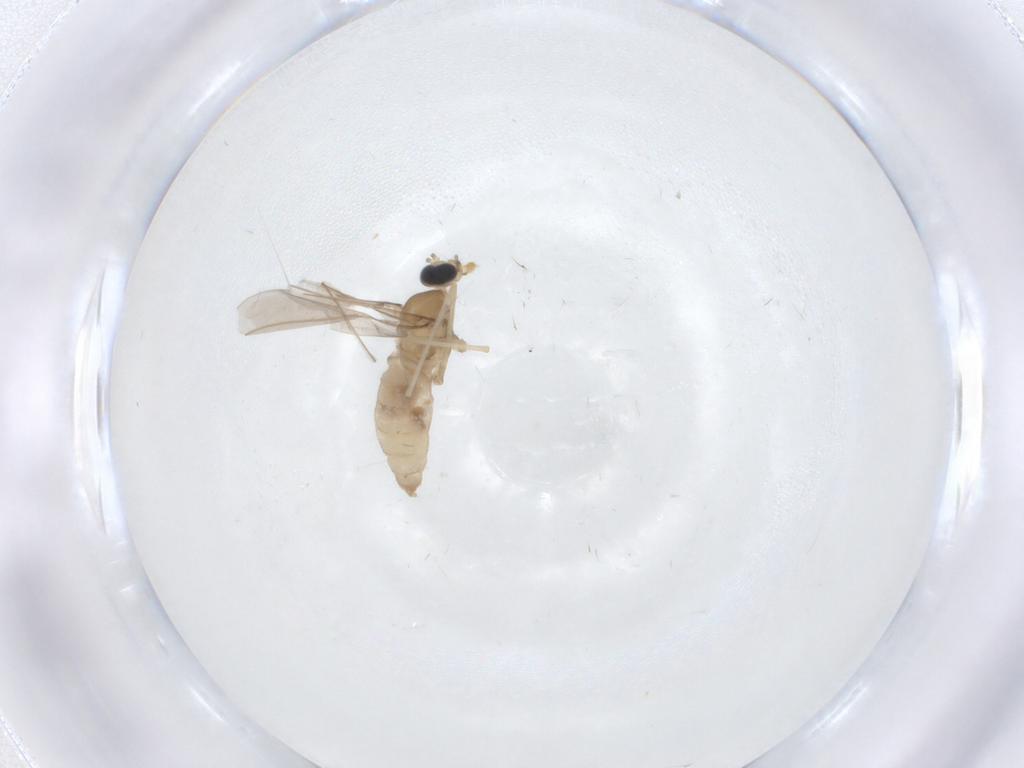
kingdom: Animalia
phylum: Arthropoda
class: Insecta
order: Diptera
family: Cecidomyiidae
